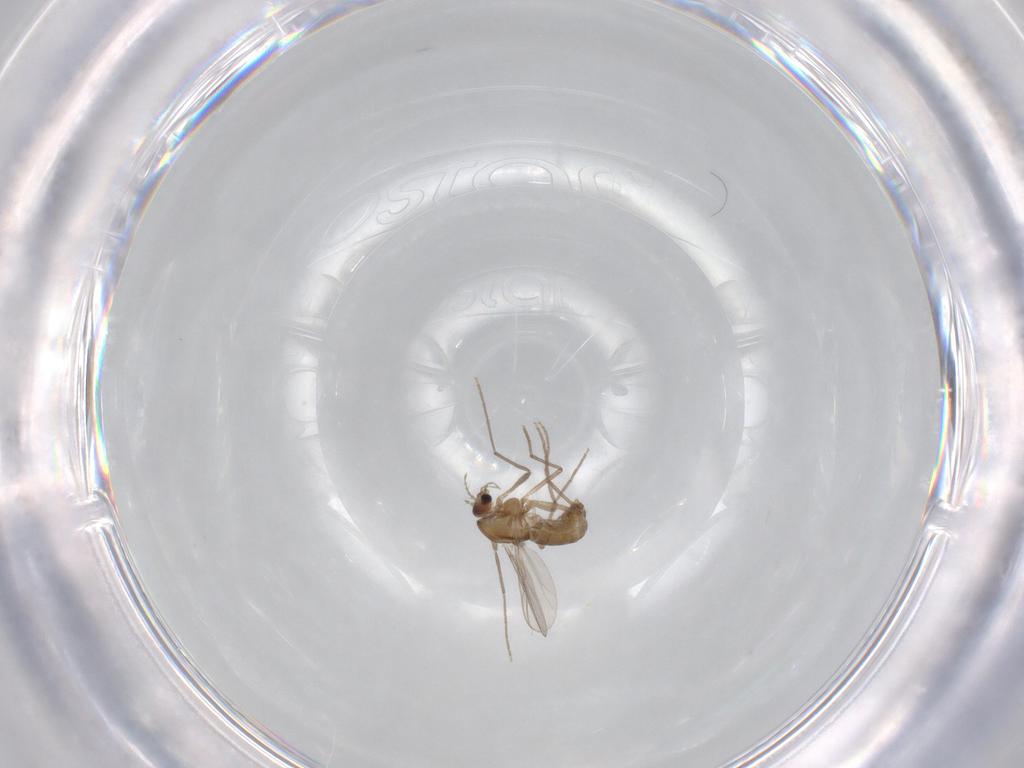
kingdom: Animalia
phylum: Arthropoda
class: Insecta
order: Diptera
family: Chironomidae
